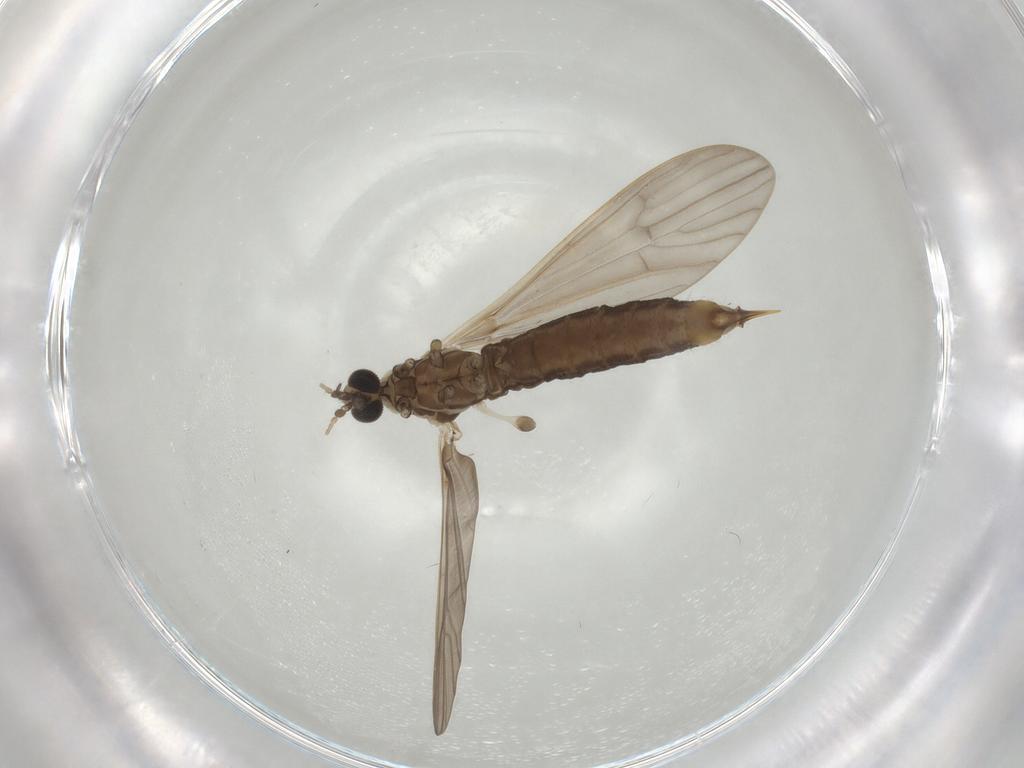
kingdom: Animalia
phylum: Arthropoda
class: Insecta
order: Diptera
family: Limoniidae
